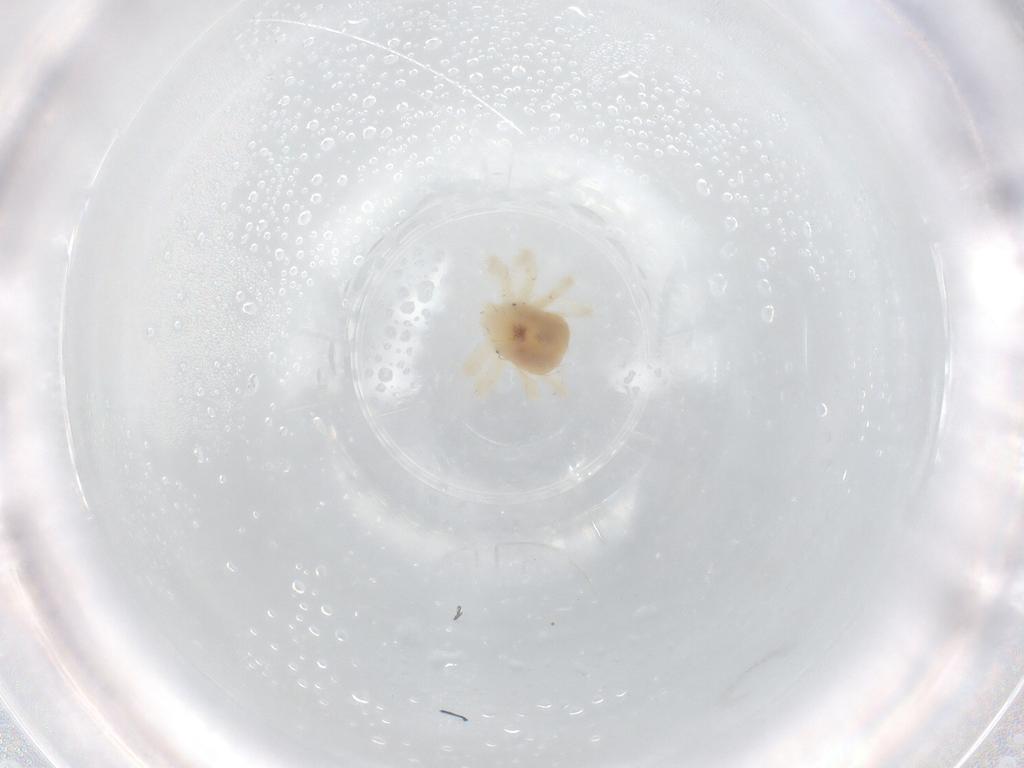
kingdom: Animalia
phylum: Arthropoda
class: Arachnida
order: Trombidiformes
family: Anystidae
